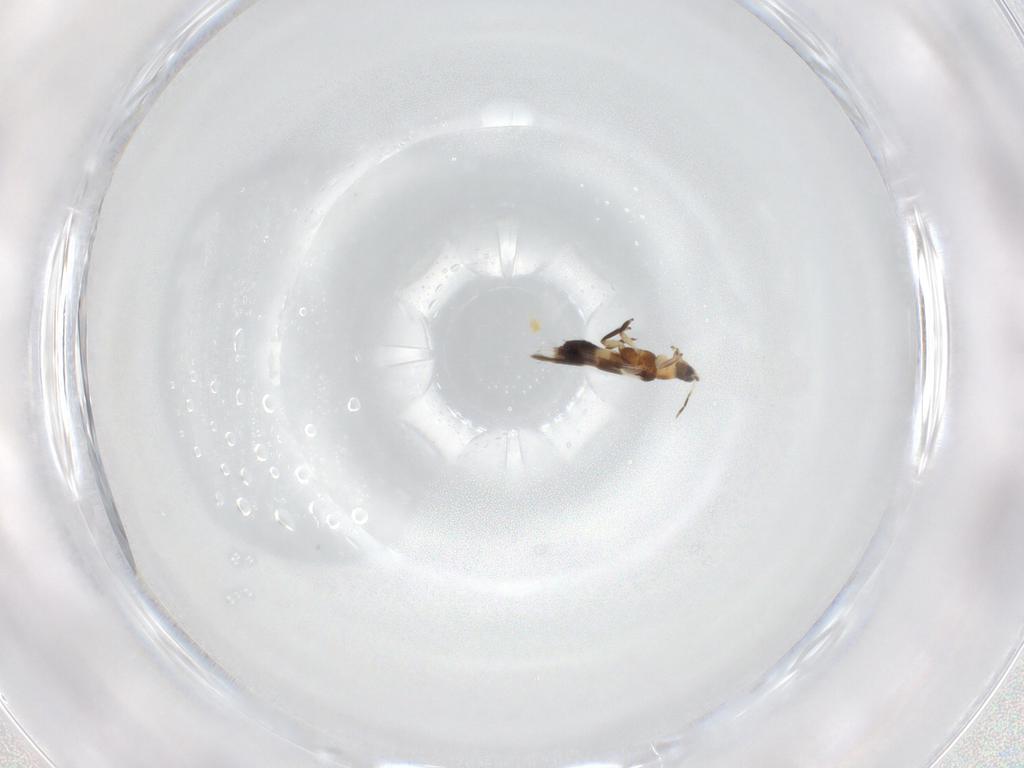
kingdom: Animalia
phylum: Arthropoda
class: Insecta
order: Thysanoptera
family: Aeolothripidae
